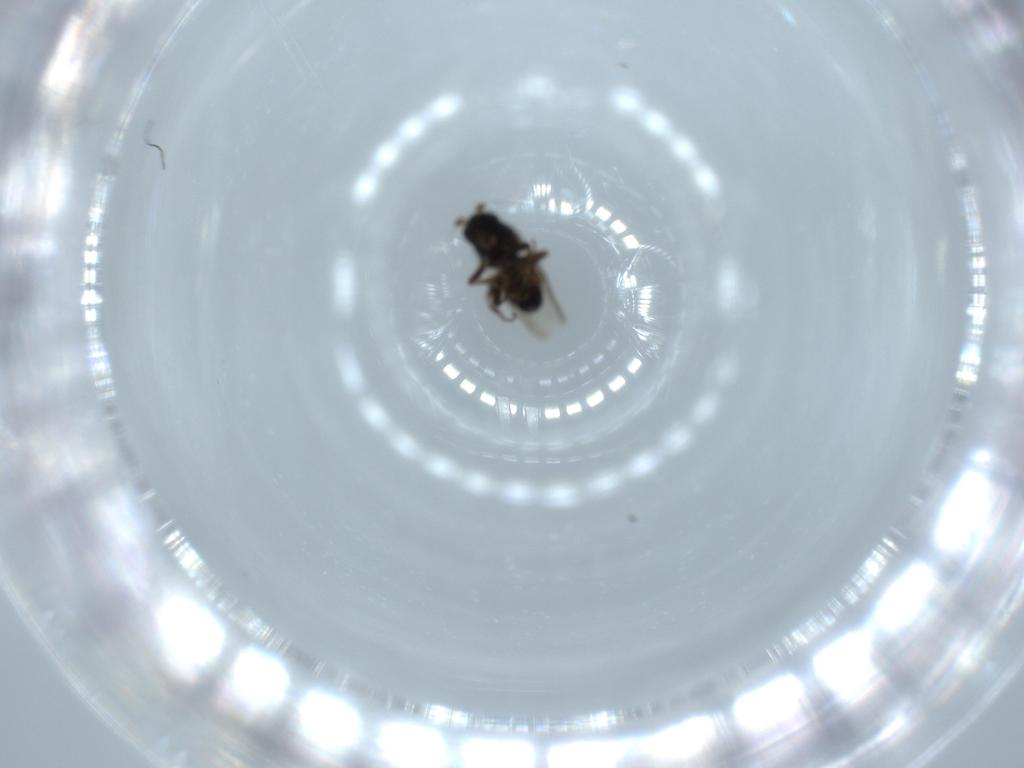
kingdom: Animalia
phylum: Arthropoda
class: Insecta
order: Diptera
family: Sphaeroceridae
